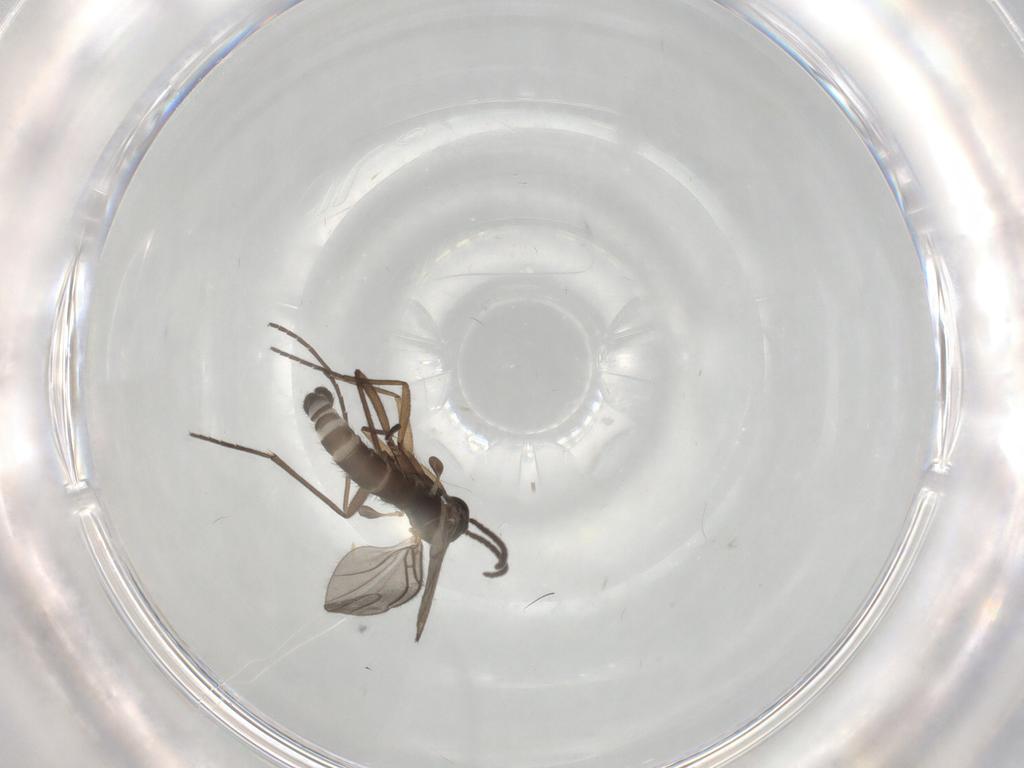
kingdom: Animalia
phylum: Arthropoda
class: Insecta
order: Diptera
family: Sciaridae
